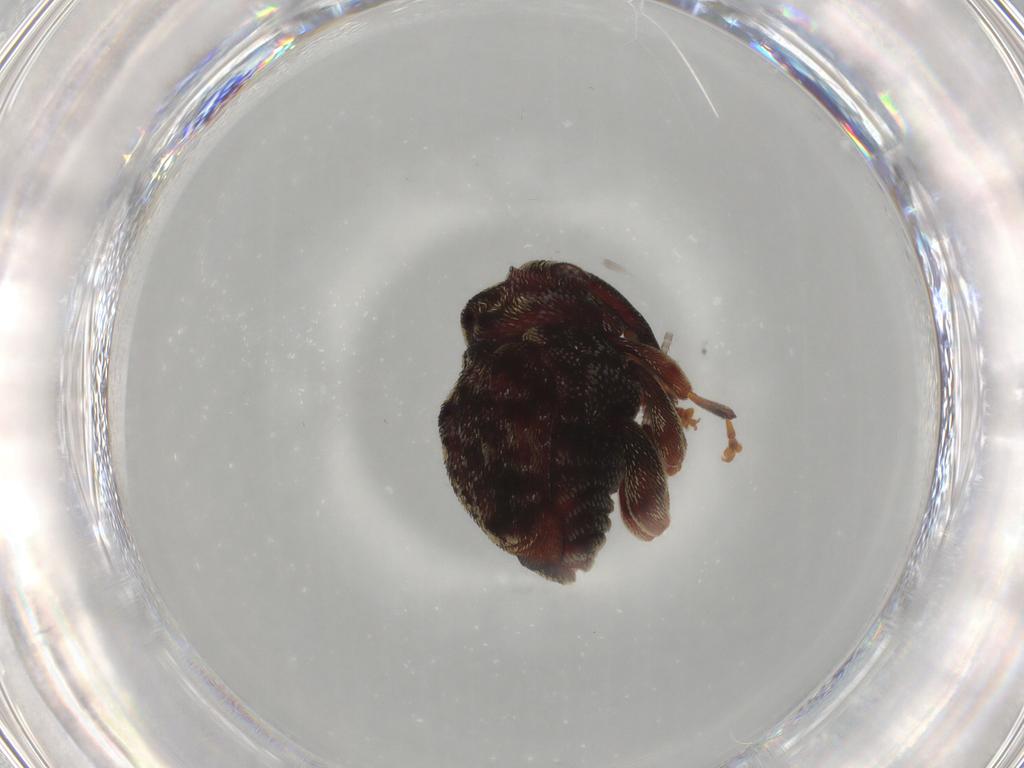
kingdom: Animalia
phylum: Arthropoda
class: Insecta
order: Coleoptera
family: Curculionidae
